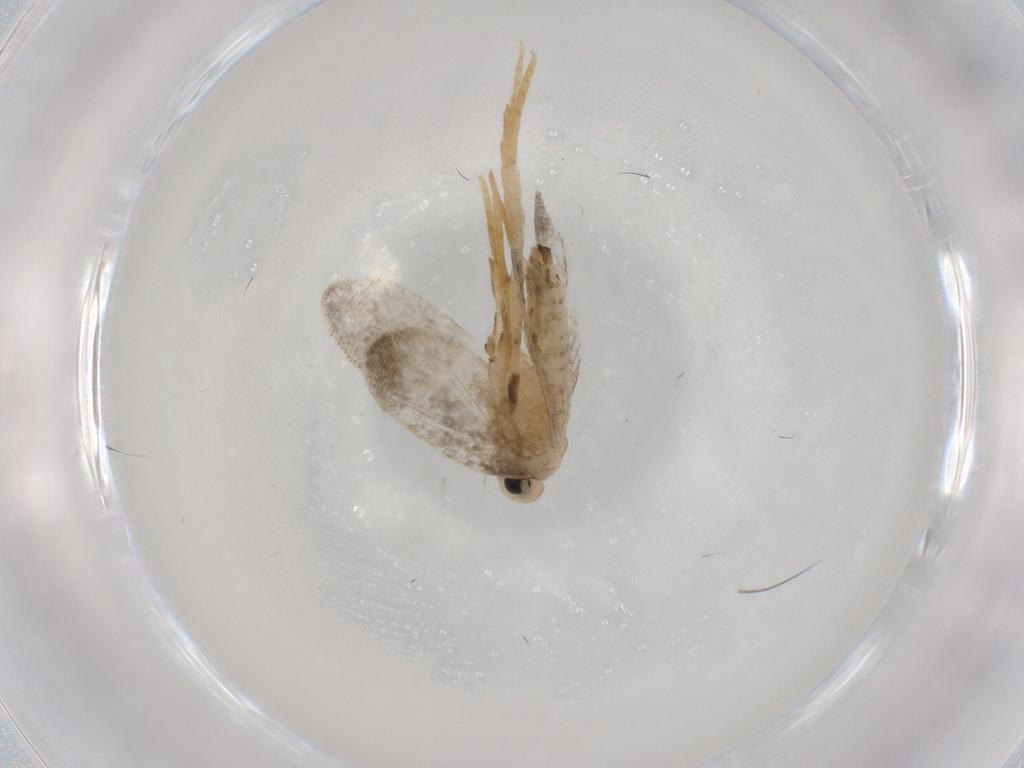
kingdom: Animalia
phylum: Arthropoda
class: Insecta
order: Lepidoptera
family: Psychidae
